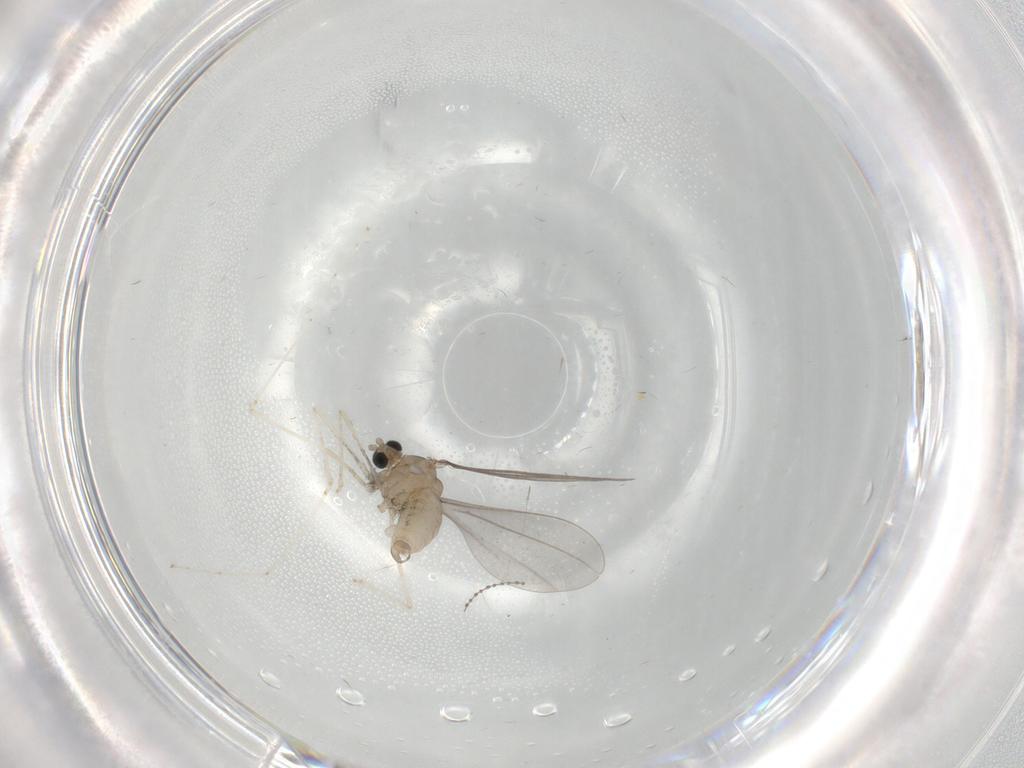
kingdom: Animalia
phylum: Arthropoda
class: Insecta
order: Diptera
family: Cecidomyiidae
